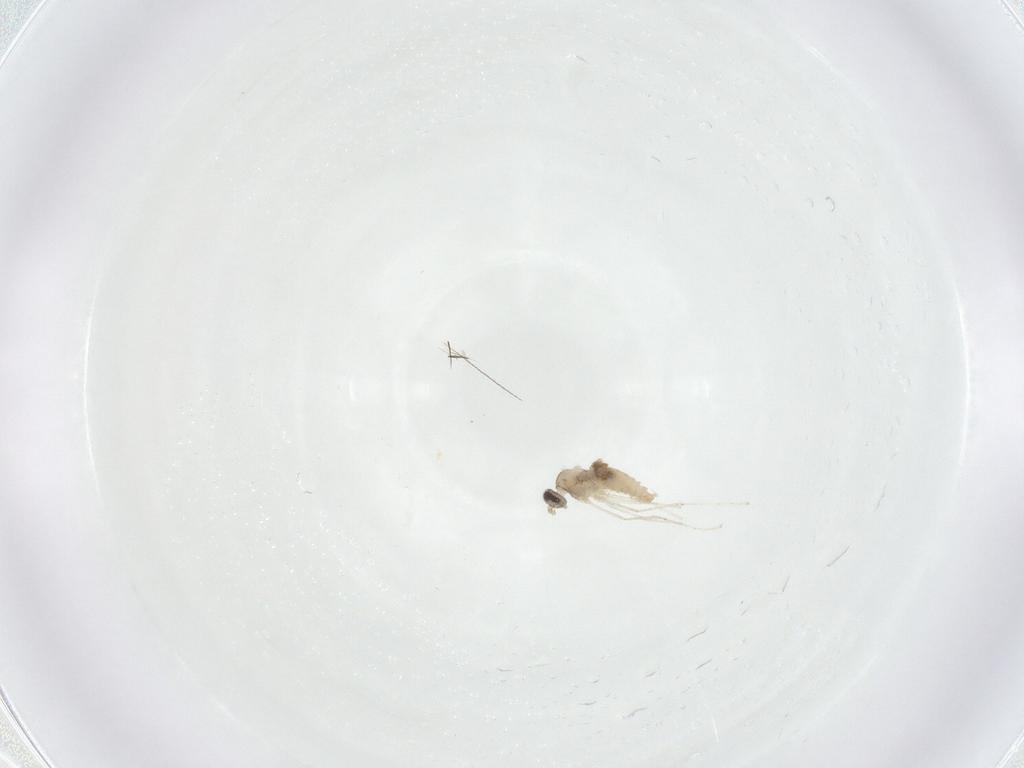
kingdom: Animalia
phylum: Arthropoda
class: Insecta
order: Diptera
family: Cecidomyiidae
